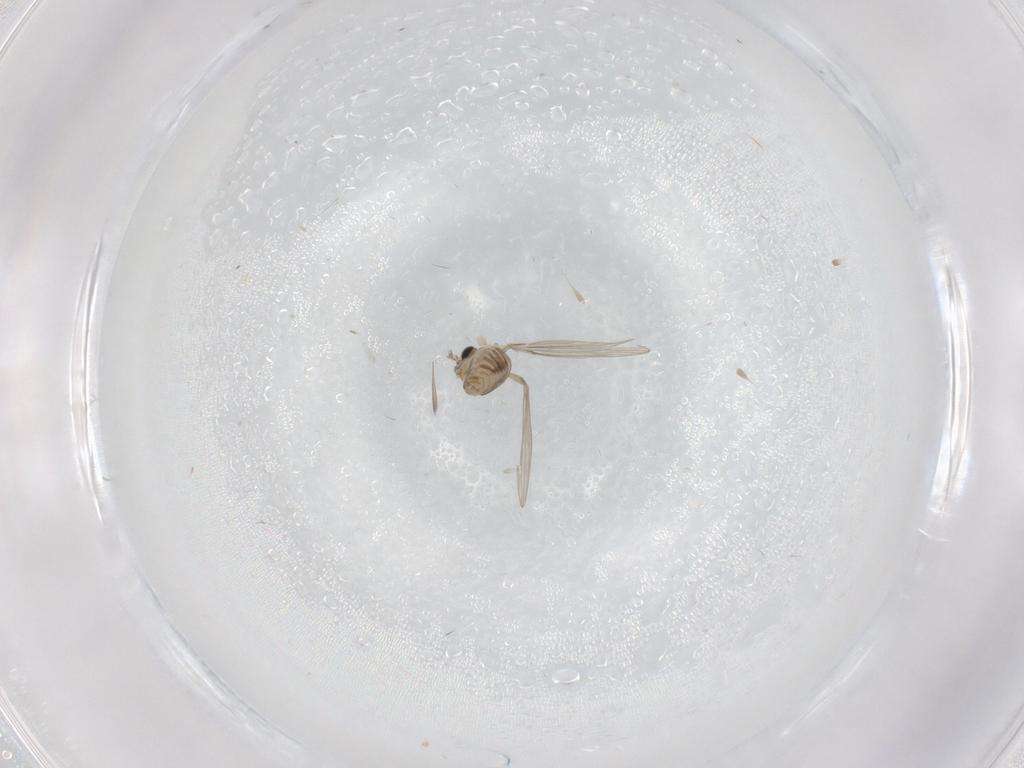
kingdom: Animalia
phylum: Arthropoda
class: Insecta
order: Diptera
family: Psychodidae
